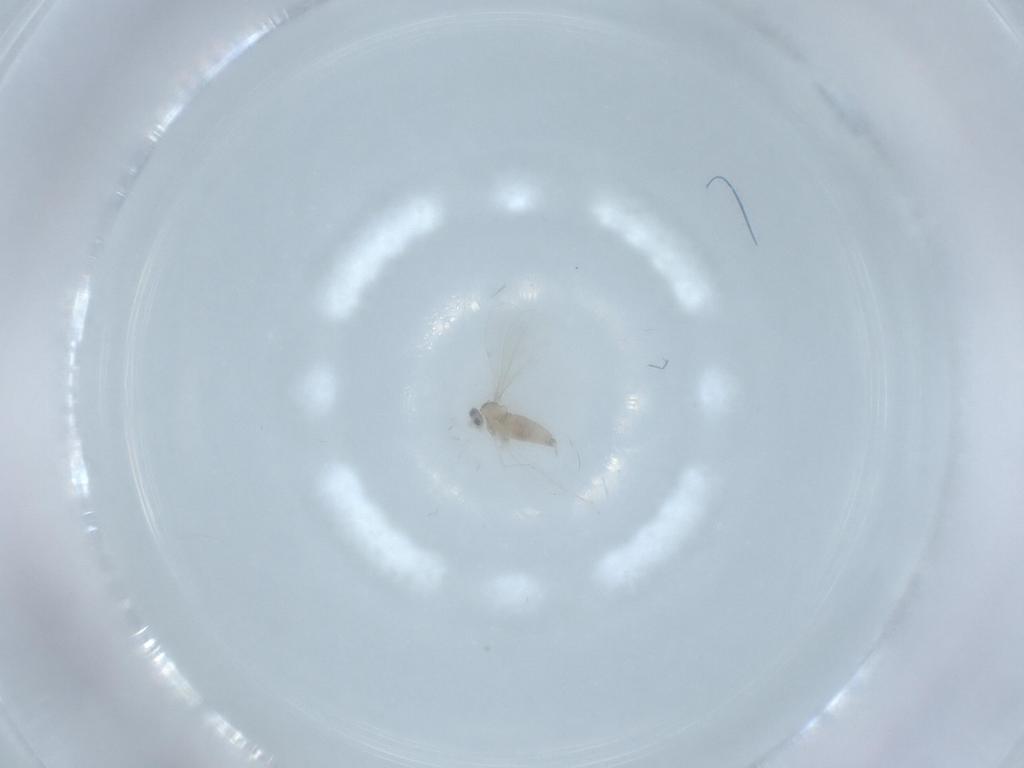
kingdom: Animalia
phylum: Arthropoda
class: Insecta
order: Diptera
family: Cecidomyiidae
